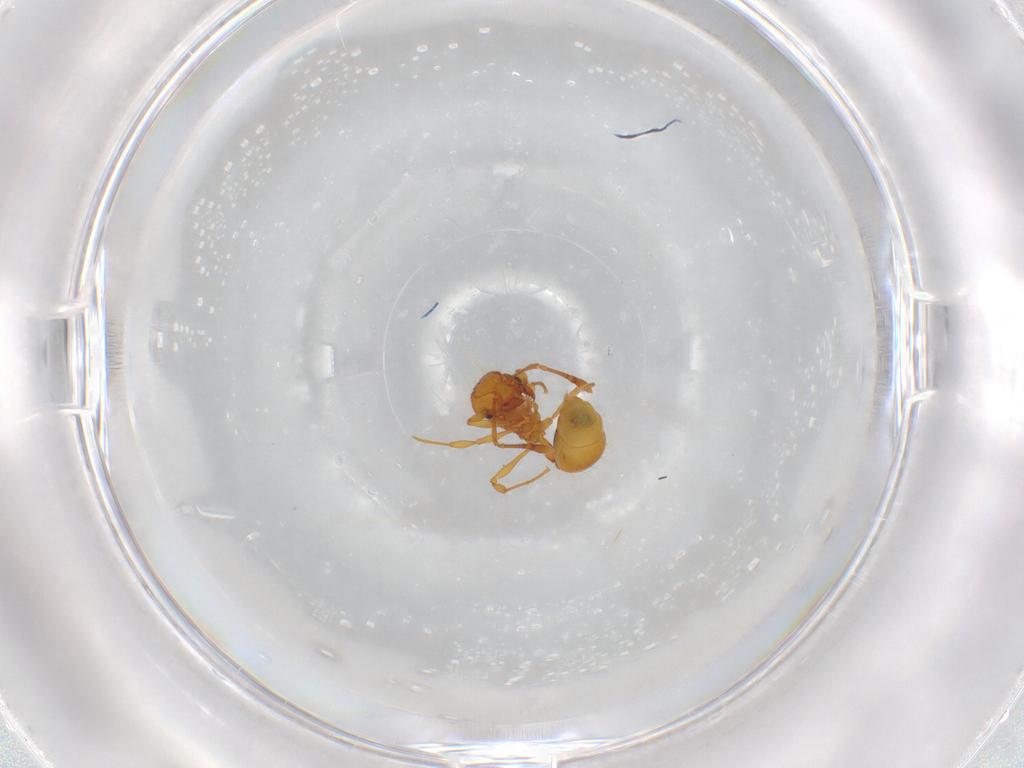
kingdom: Animalia
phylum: Arthropoda
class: Insecta
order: Hymenoptera
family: Formicidae
